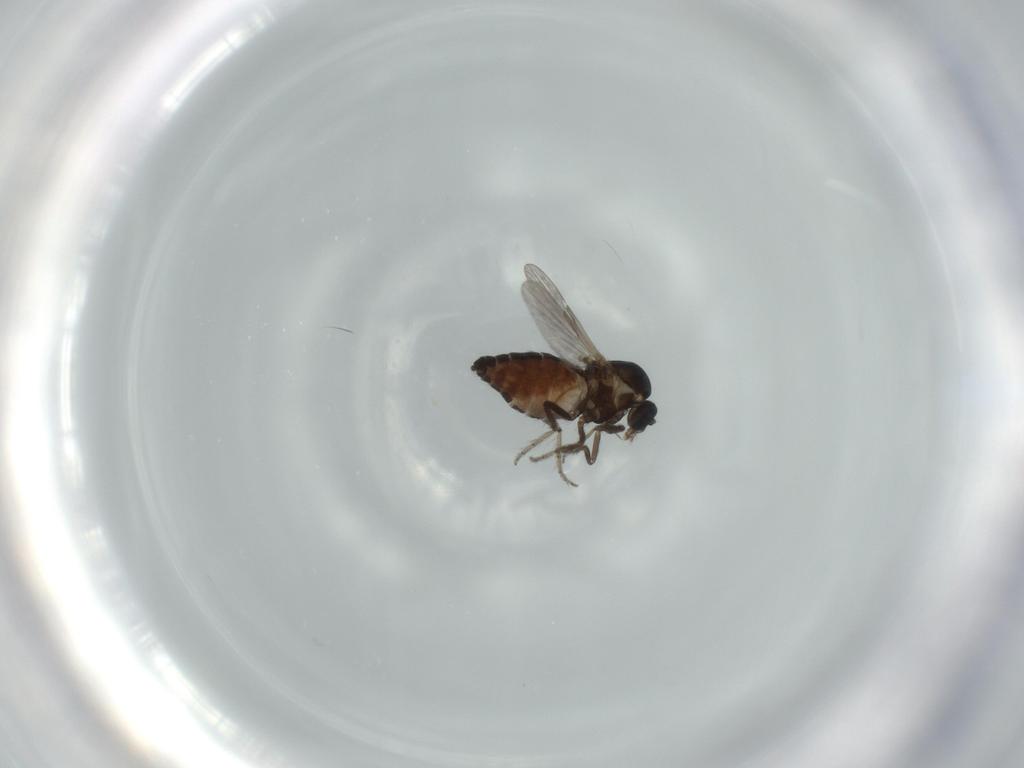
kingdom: Animalia
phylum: Arthropoda
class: Insecta
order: Diptera
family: Ceratopogonidae
